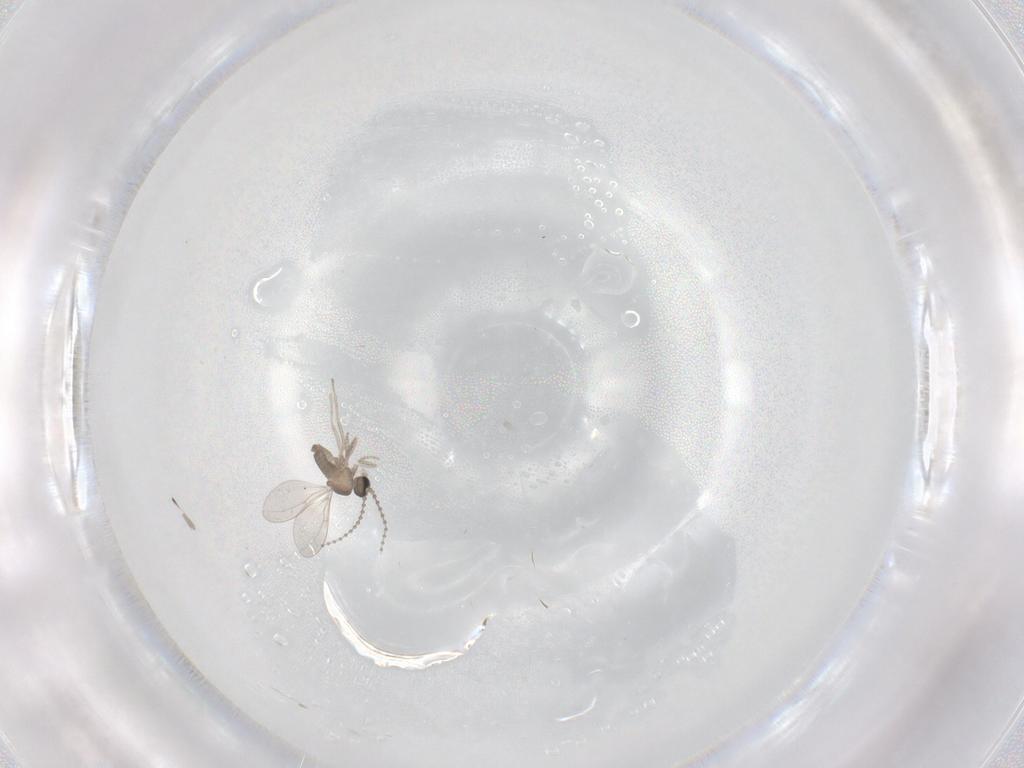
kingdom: Animalia
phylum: Arthropoda
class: Insecta
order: Diptera
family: Cecidomyiidae
